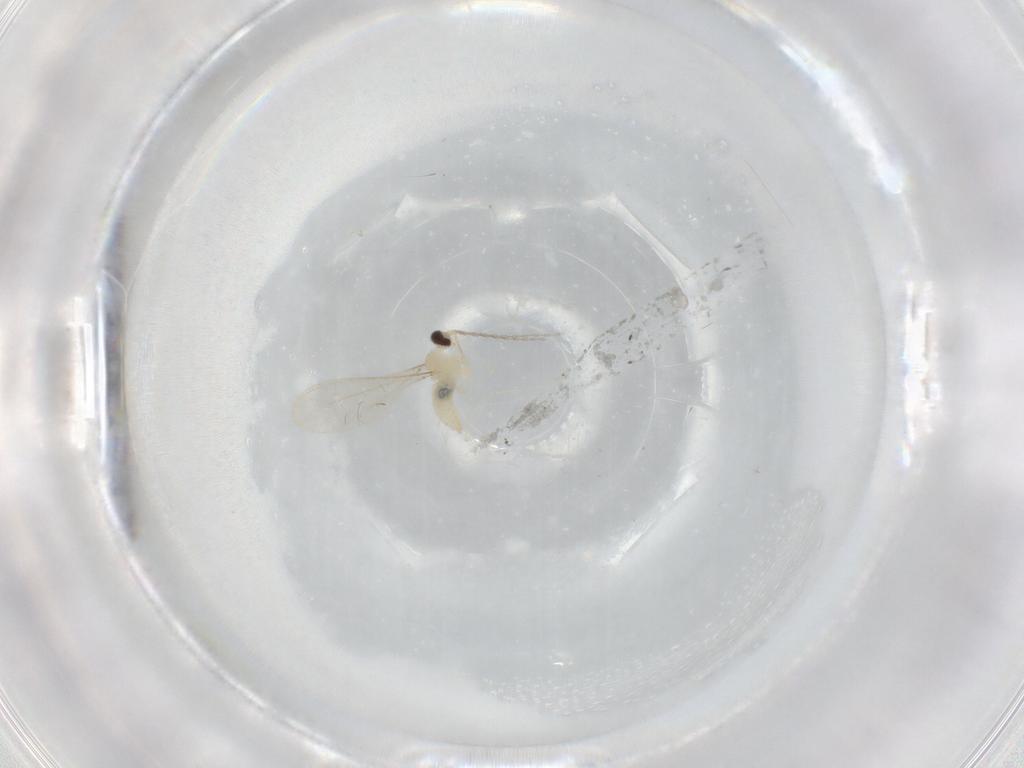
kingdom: Animalia
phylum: Arthropoda
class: Insecta
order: Diptera
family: Cecidomyiidae
